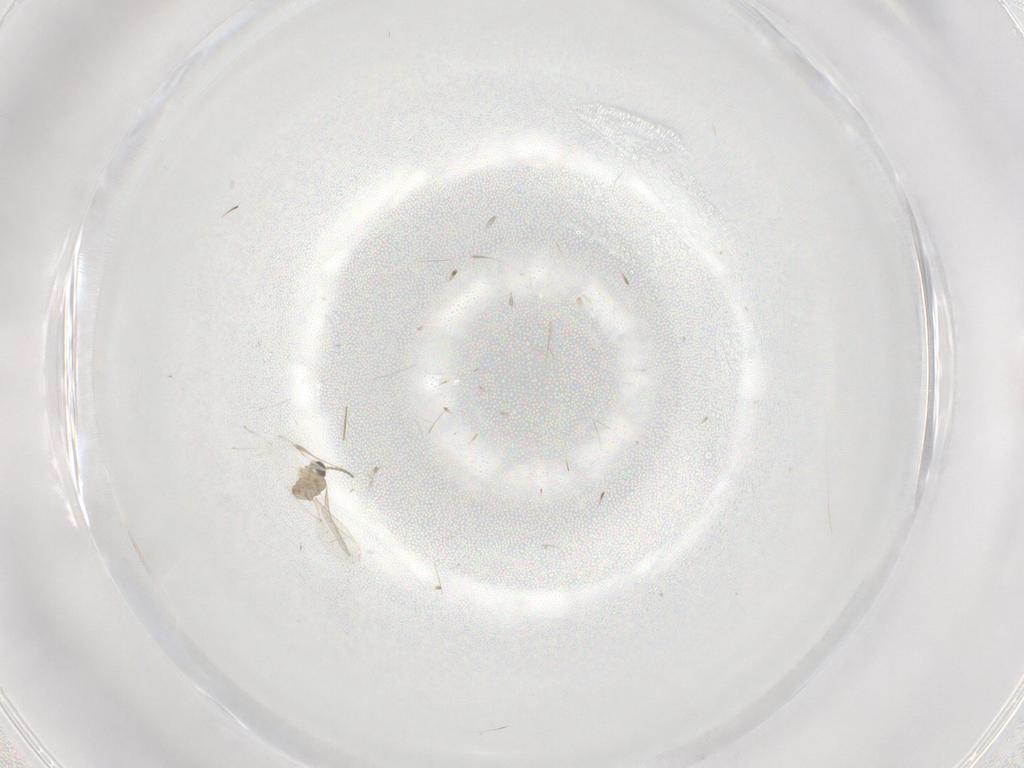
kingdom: Animalia
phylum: Arthropoda
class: Insecta
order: Diptera
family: Cecidomyiidae
